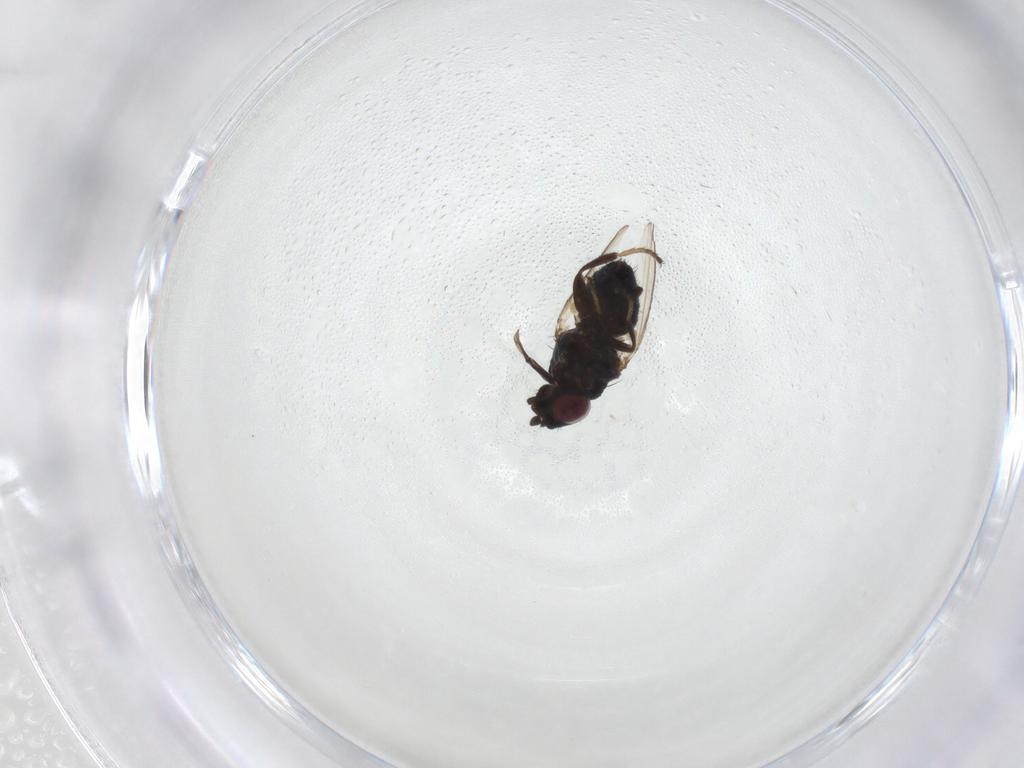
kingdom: Animalia
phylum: Arthropoda
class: Insecta
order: Diptera
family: Milichiidae
